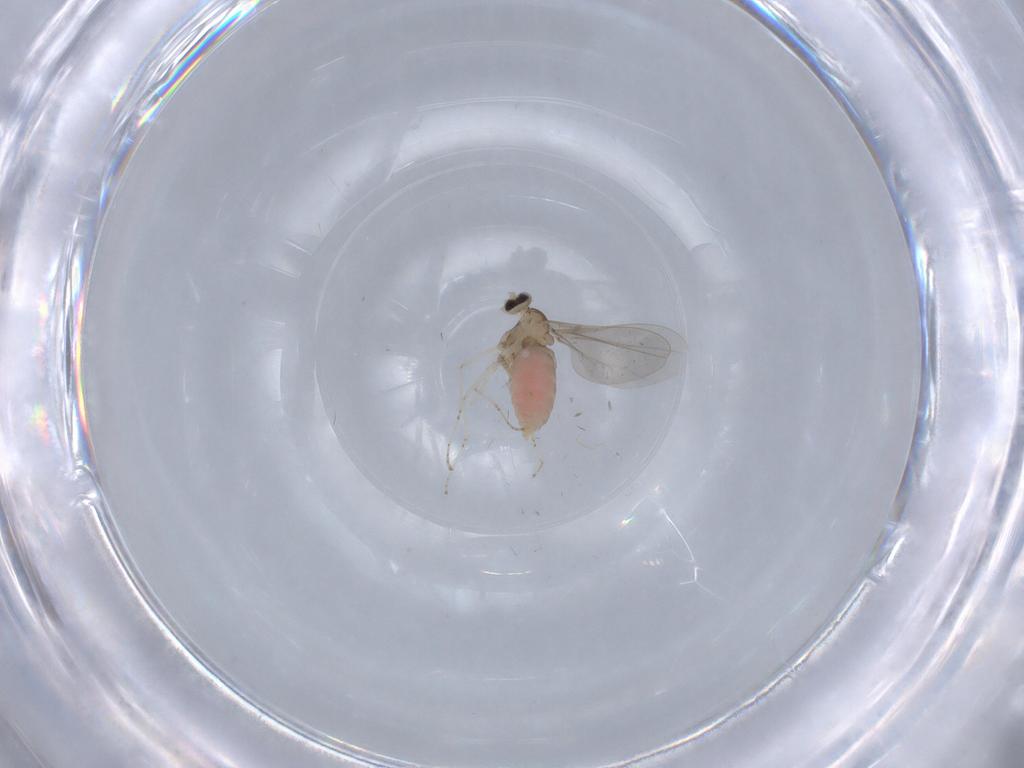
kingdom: Animalia
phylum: Arthropoda
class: Insecta
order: Diptera
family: Cecidomyiidae
